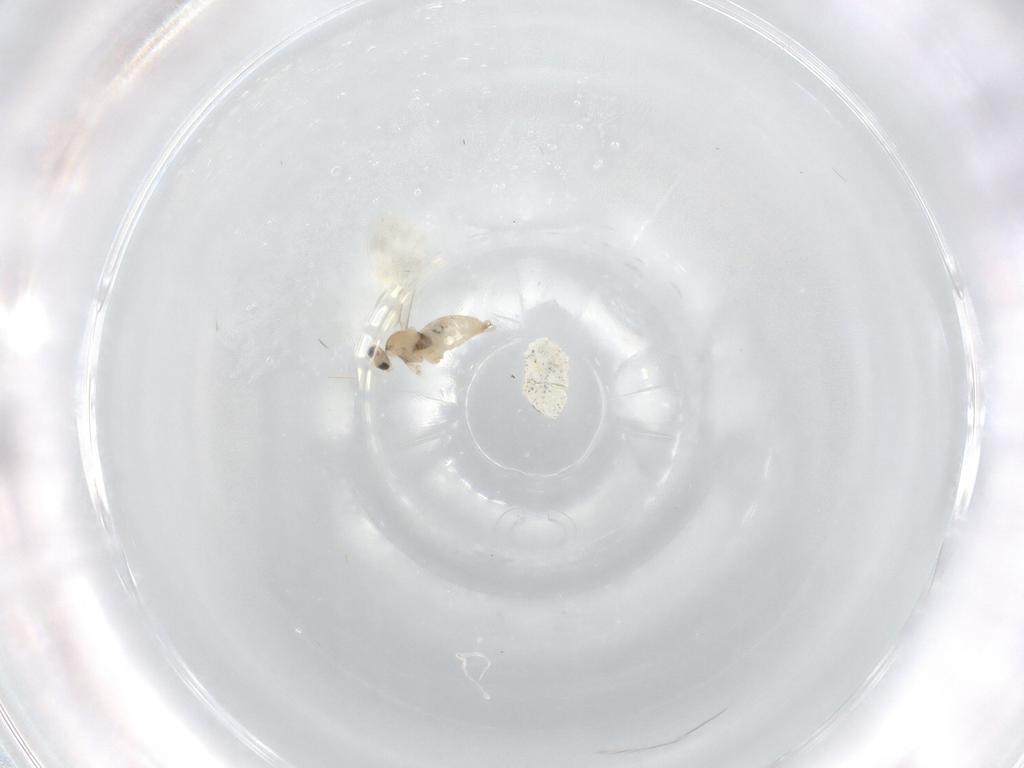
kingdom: Animalia
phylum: Arthropoda
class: Insecta
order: Diptera
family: Cecidomyiidae
